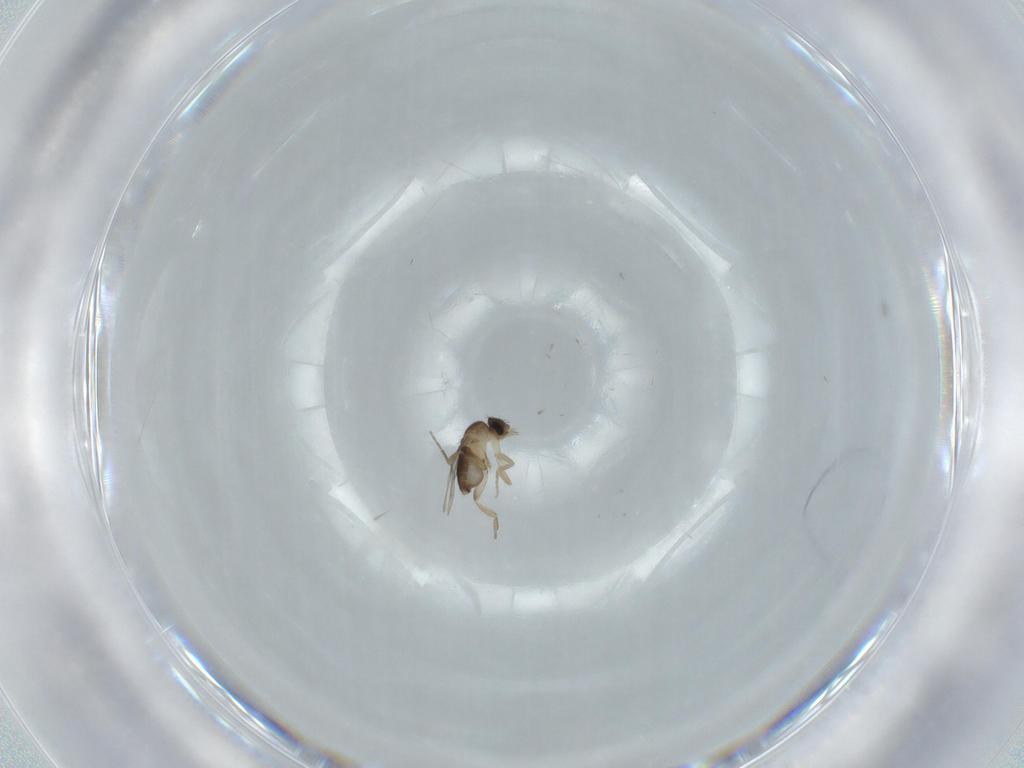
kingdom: Animalia
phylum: Arthropoda
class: Insecta
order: Diptera
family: Phoridae
